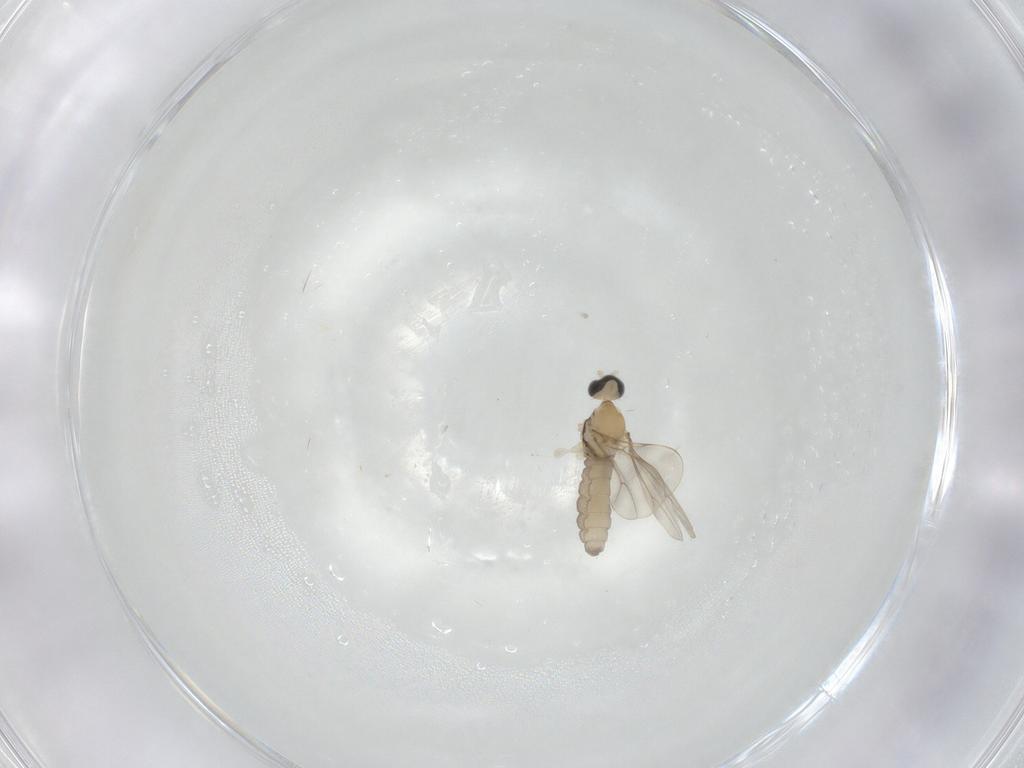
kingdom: Animalia
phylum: Arthropoda
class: Insecta
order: Diptera
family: Cecidomyiidae
